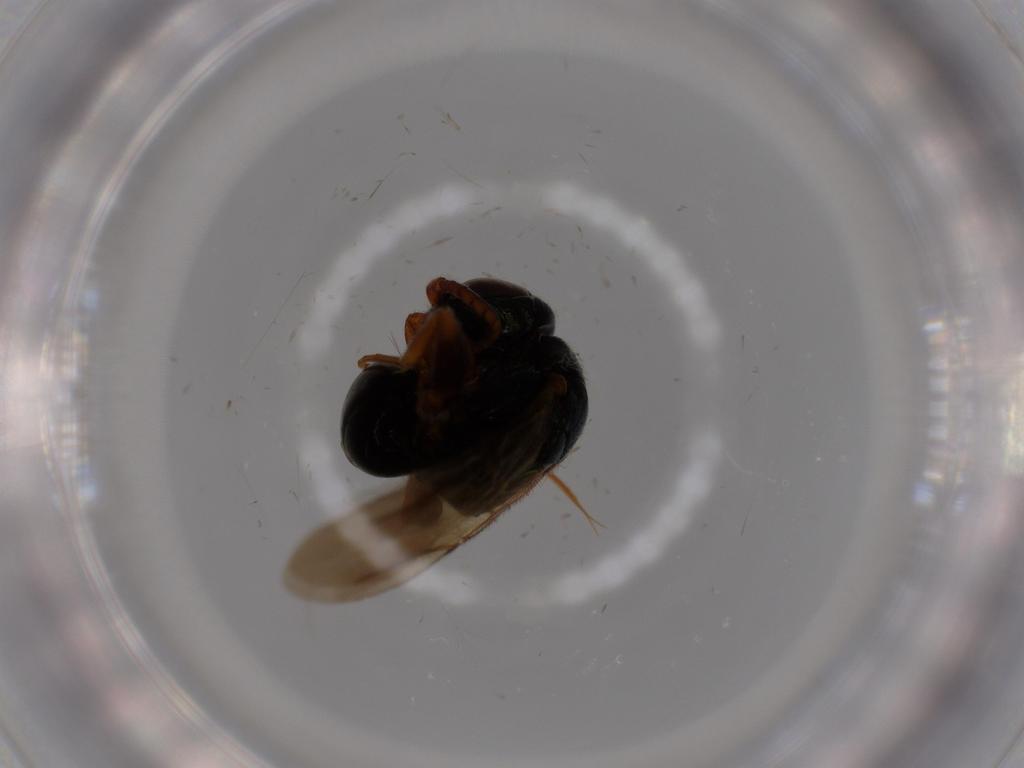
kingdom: Animalia
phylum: Arthropoda
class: Insecta
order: Hymenoptera
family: Bethylidae
